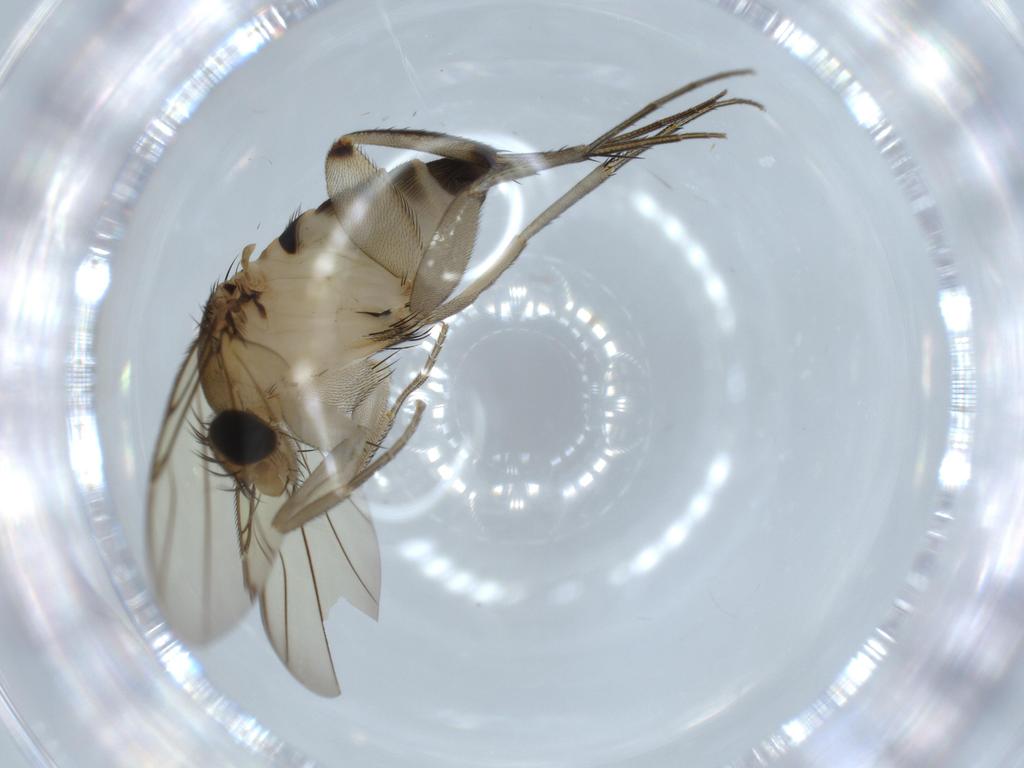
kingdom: Animalia
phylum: Arthropoda
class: Insecta
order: Diptera
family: Phoridae
